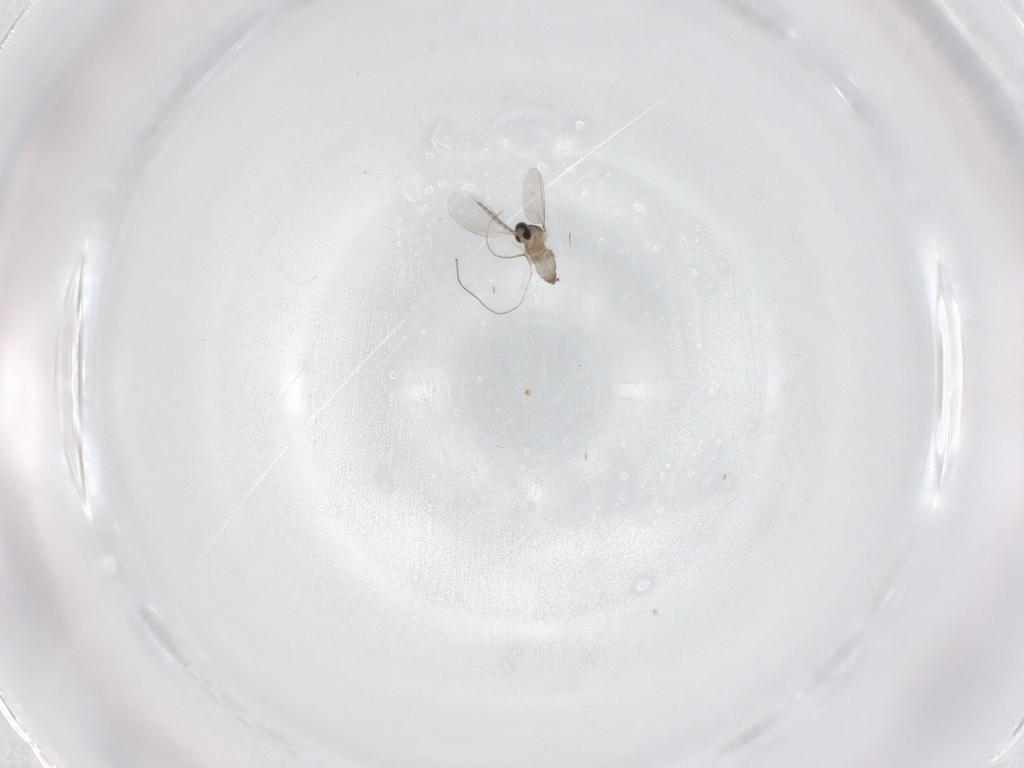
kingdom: Animalia
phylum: Arthropoda
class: Insecta
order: Diptera
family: Cecidomyiidae
